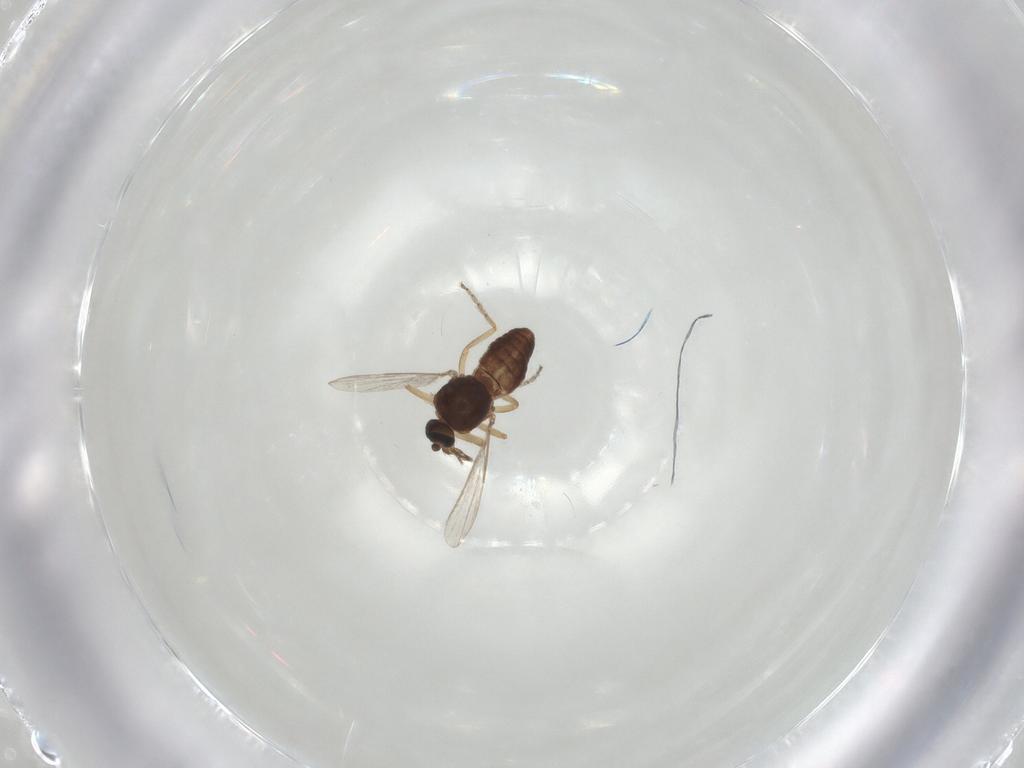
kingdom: Animalia
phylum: Arthropoda
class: Insecta
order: Diptera
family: Ceratopogonidae
